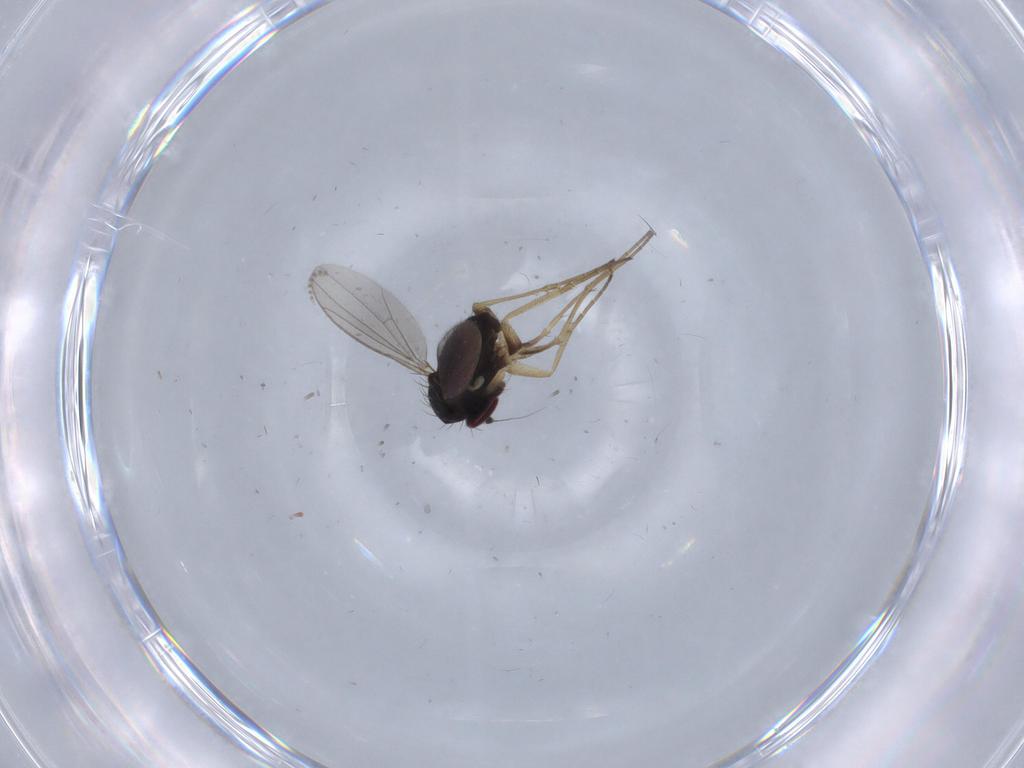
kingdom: Animalia
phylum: Arthropoda
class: Insecta
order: Diptera
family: Dolichopodidae
